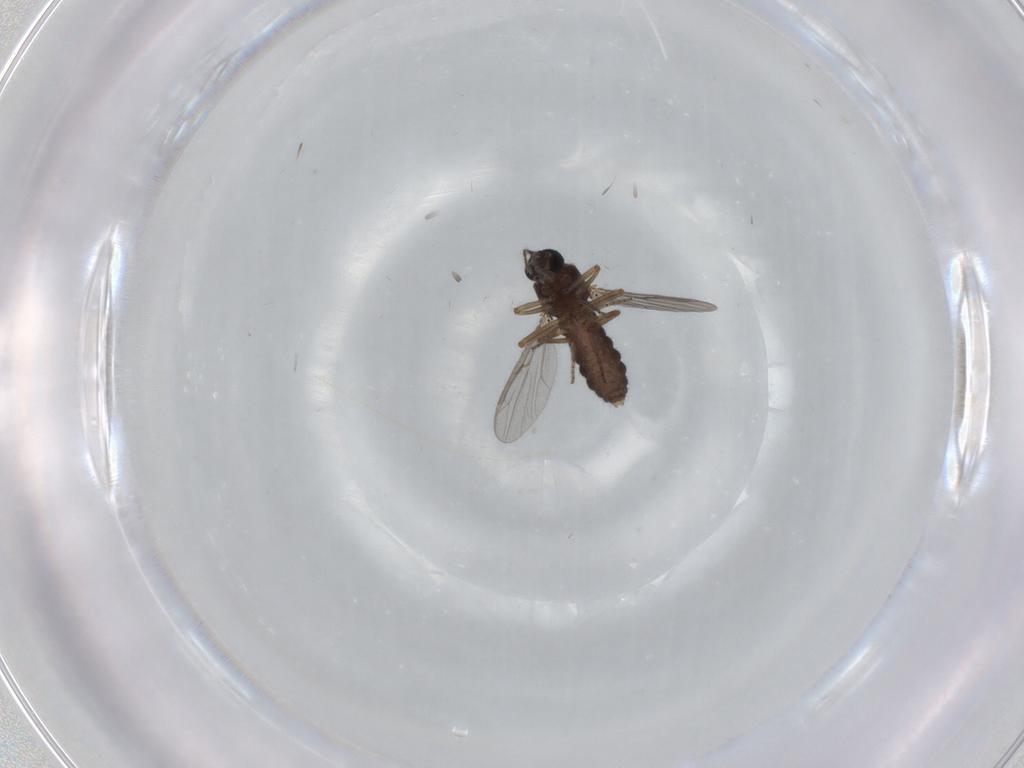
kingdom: Animalia
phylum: Arthropoda
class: Insecta
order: Diptera
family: Ceratopogonidae
